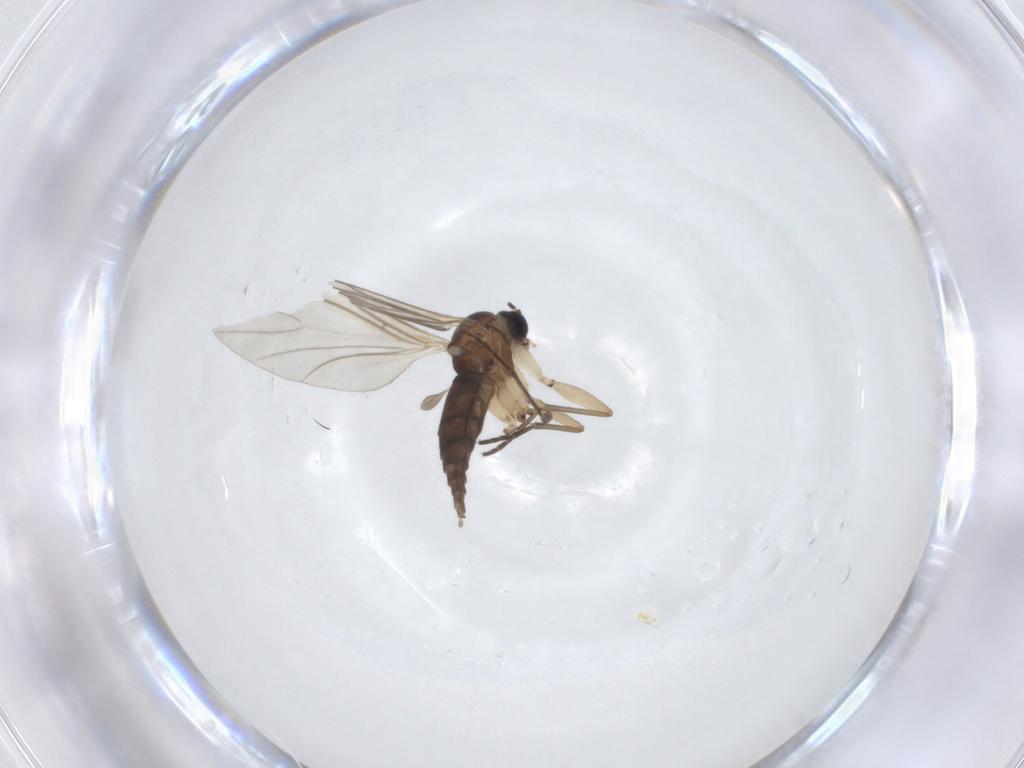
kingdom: Animalia
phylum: Arthropoda
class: Insecta
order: Diptera
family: Sciaridae
